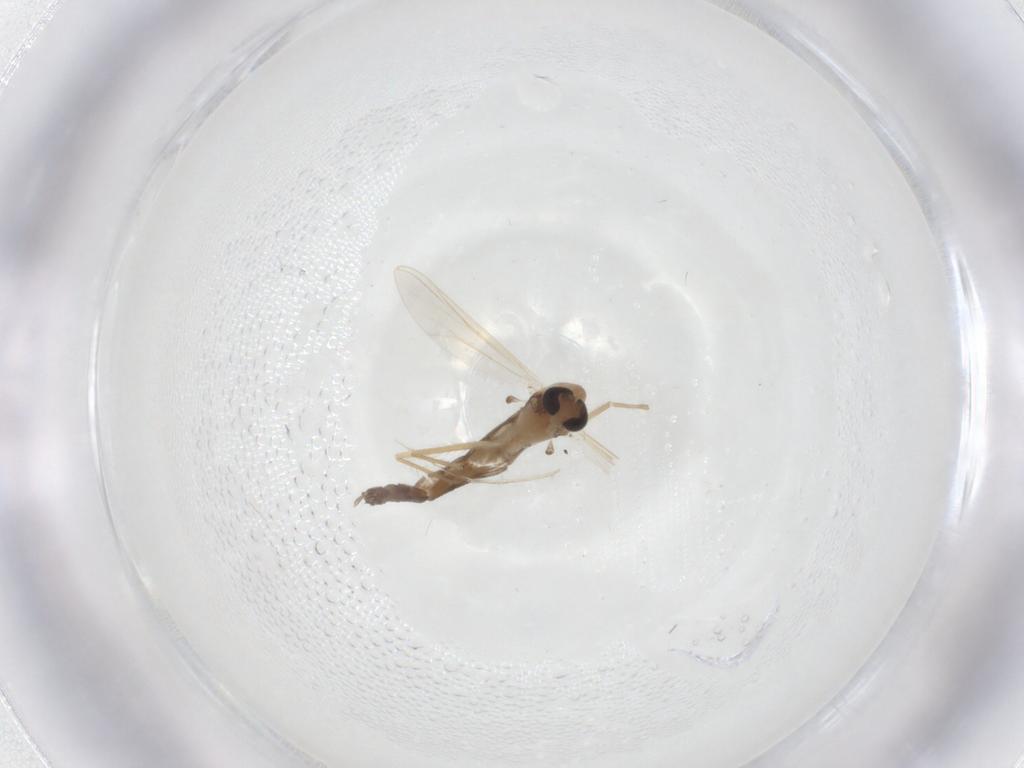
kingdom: Animalia
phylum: Arthropoda
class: Insecta
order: Diptera
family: Chironomidae
